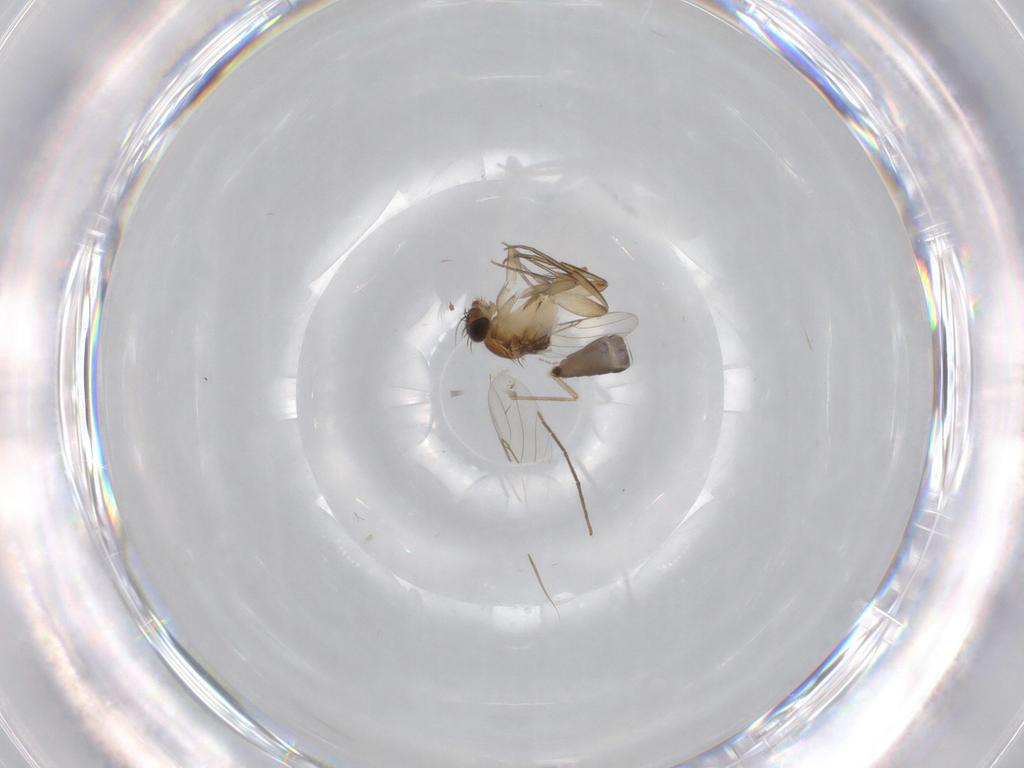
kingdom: Animalia
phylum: Arthropoda
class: Insecta
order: Diptera
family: Phoridae
